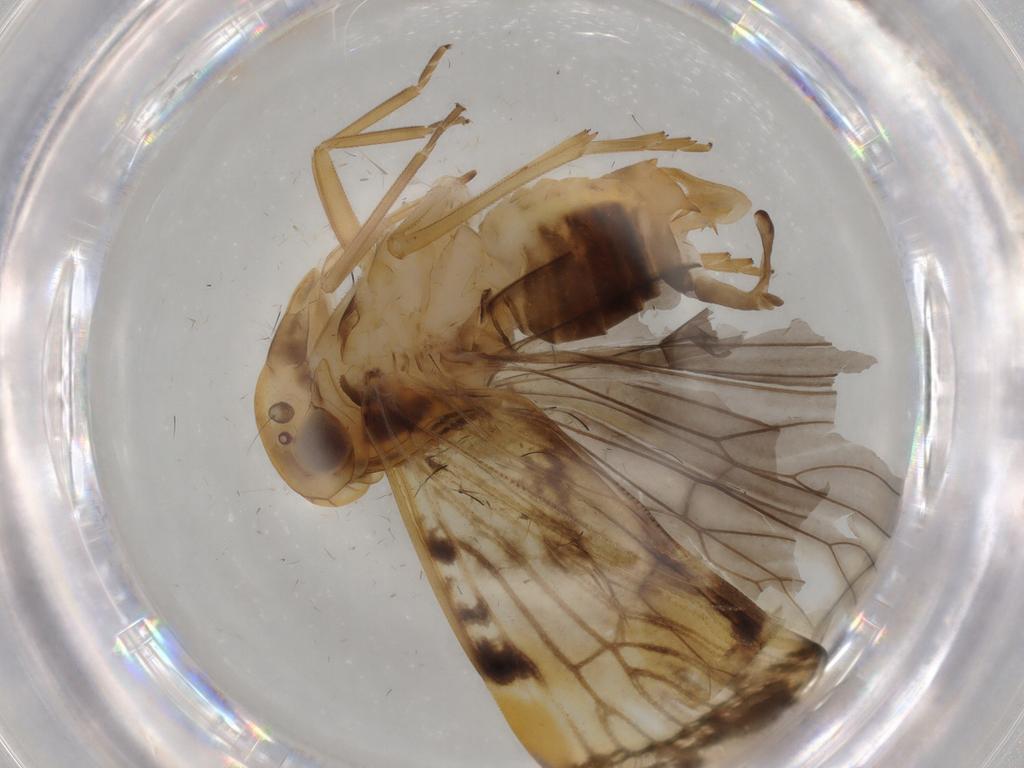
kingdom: Animalia
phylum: Arthropoda
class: Insecta
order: Hemiptera
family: Cixiidae
